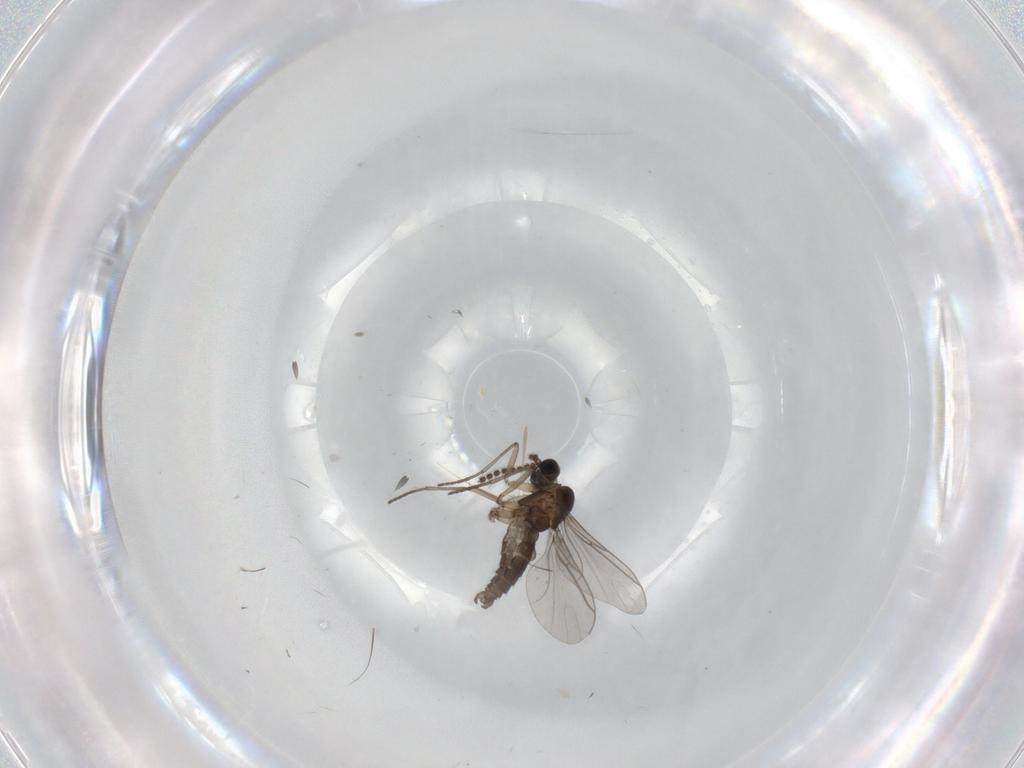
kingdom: Animalia
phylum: Arthropoda
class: Insecta
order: Diptera
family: Cecidomyiidae
